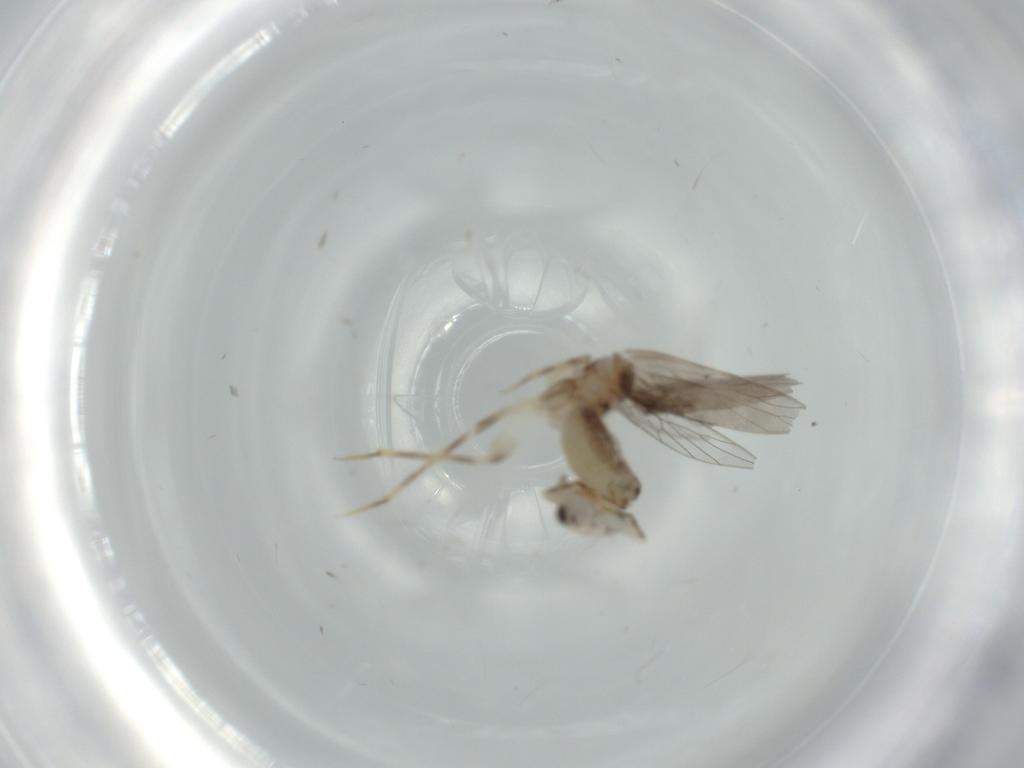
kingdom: Animalia
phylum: Arthropoda
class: Insecta
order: Psocodea
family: Lepidopsocidae
